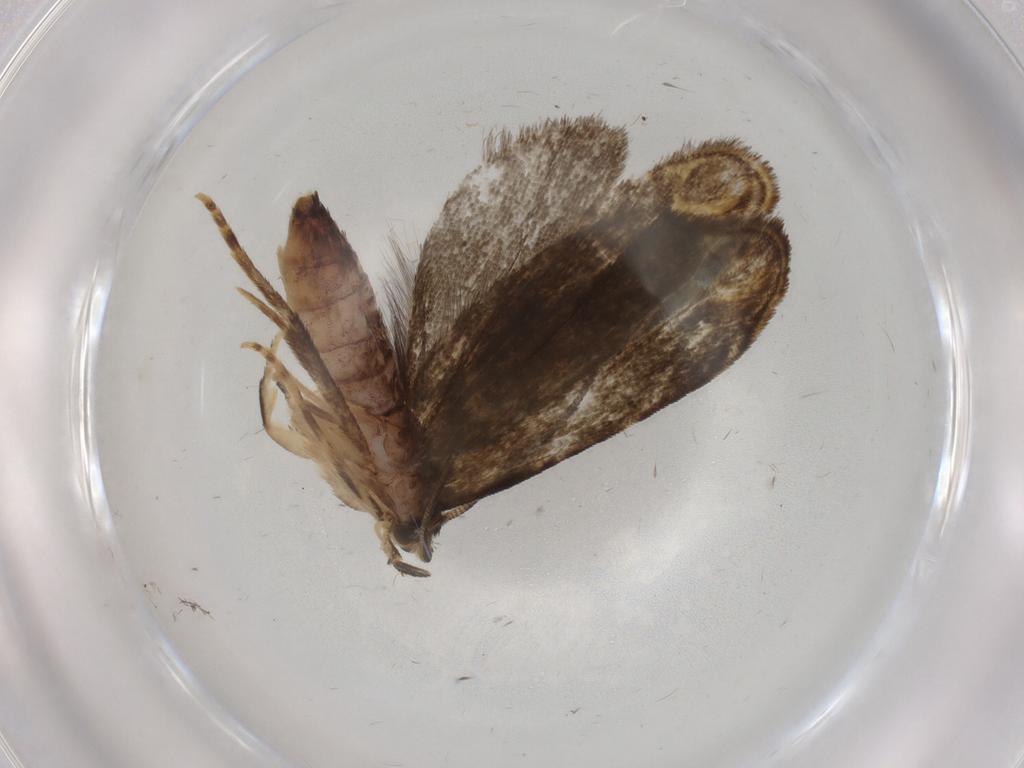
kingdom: Animalia
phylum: Arthropoda
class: Insecta
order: Lepidoptera
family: Dryadaulidae
